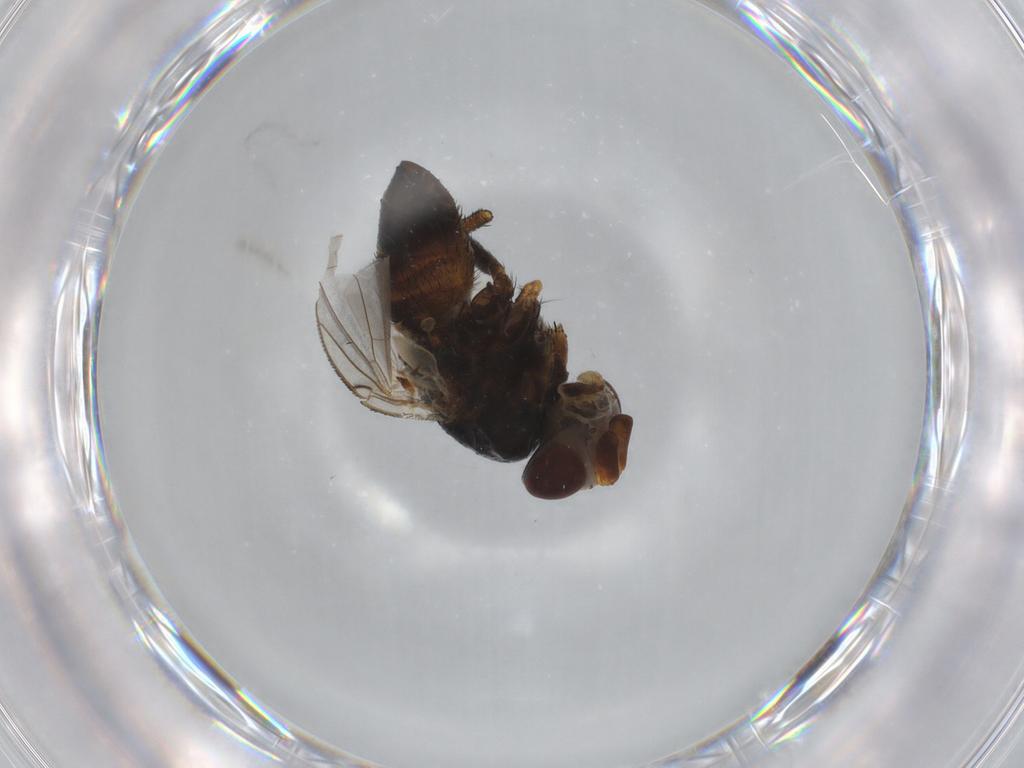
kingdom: Animalia
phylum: Arthropoda
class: Insecta
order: Diptera
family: Glossinidae
